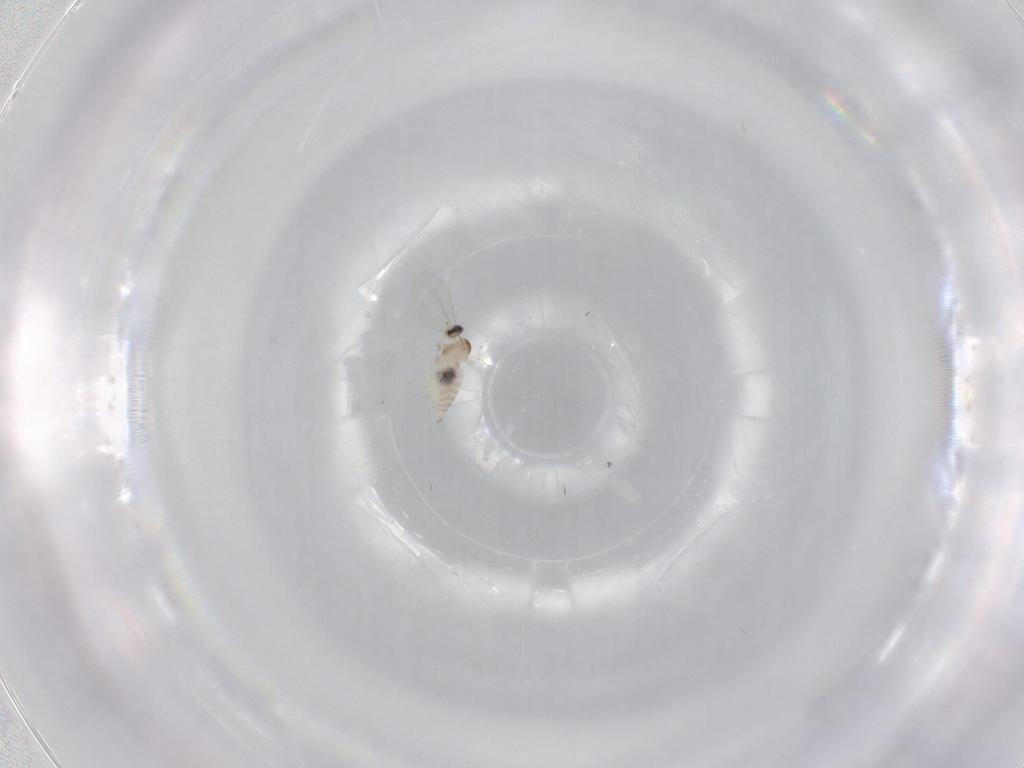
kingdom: Animalia
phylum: Arthropoda
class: Insecta
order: Diptera
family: Cecidomyiidae
